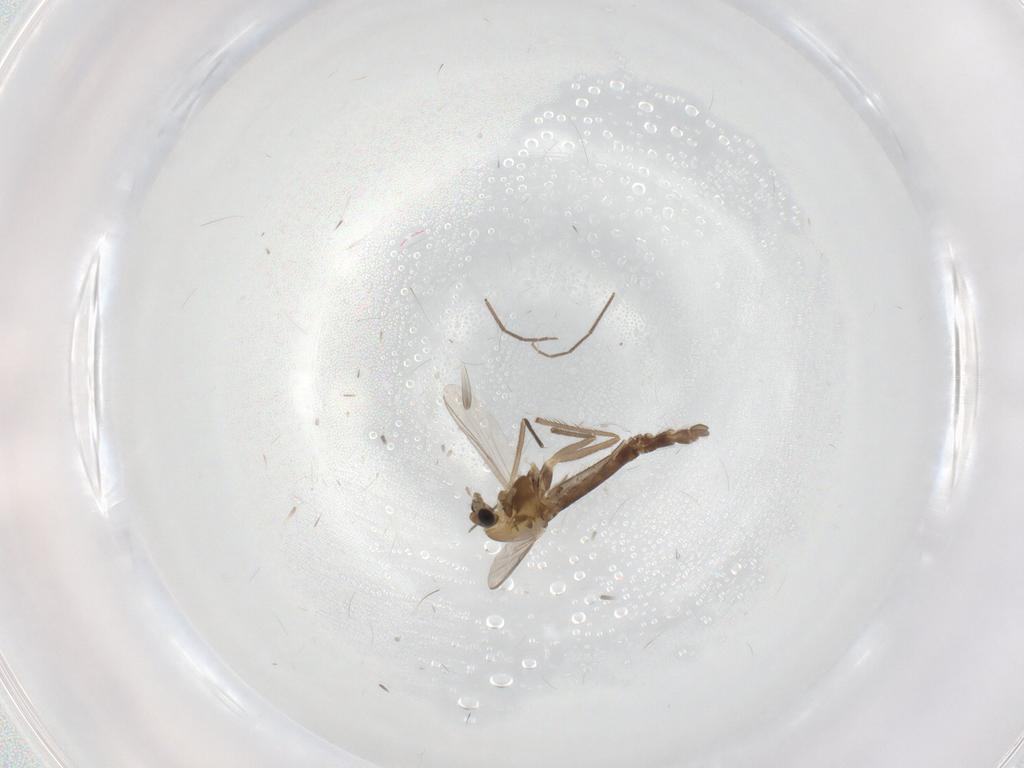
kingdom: Animalia
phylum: Arthropoda
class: Insecta
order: Diptera
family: Chironomidae
